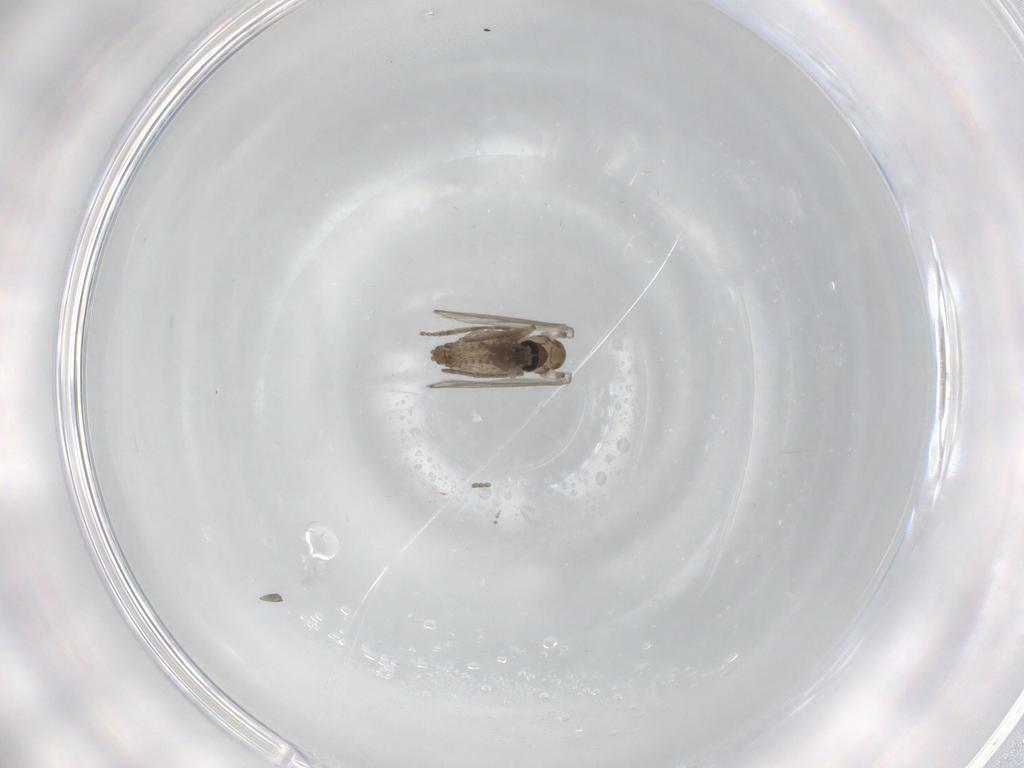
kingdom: Animalia
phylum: Arthropoda
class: Insecta
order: Diptera
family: Psychodidae
